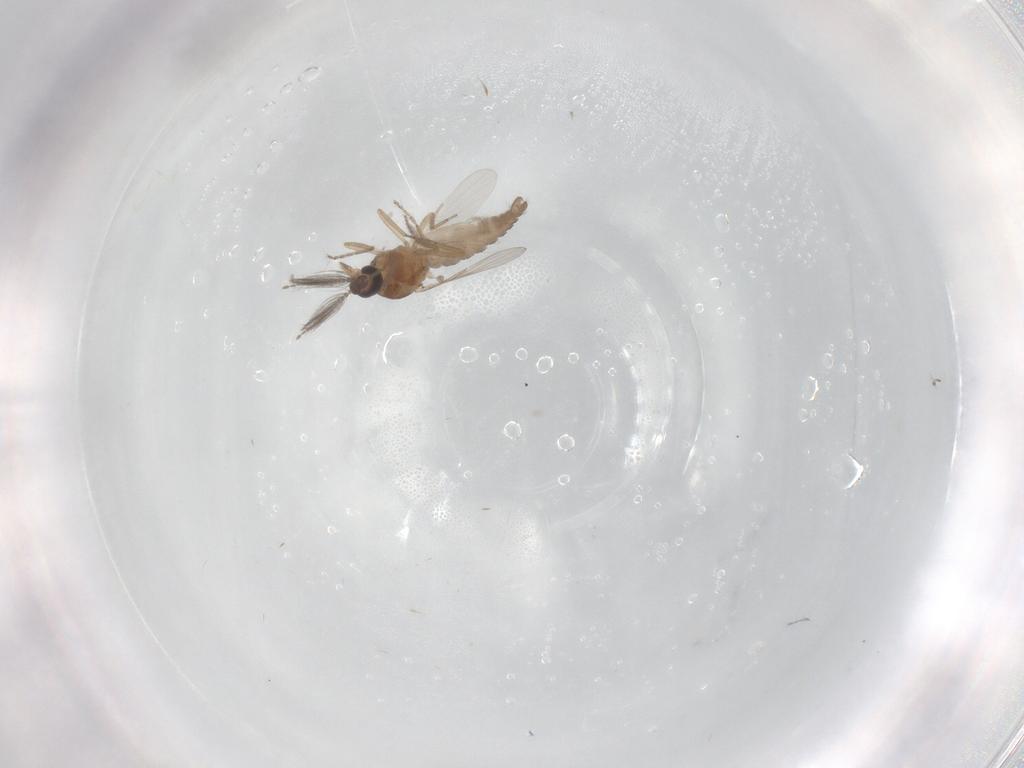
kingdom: Animalia
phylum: Arthropoda
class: Insecta
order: Diptera
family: Ceratopogonidae
